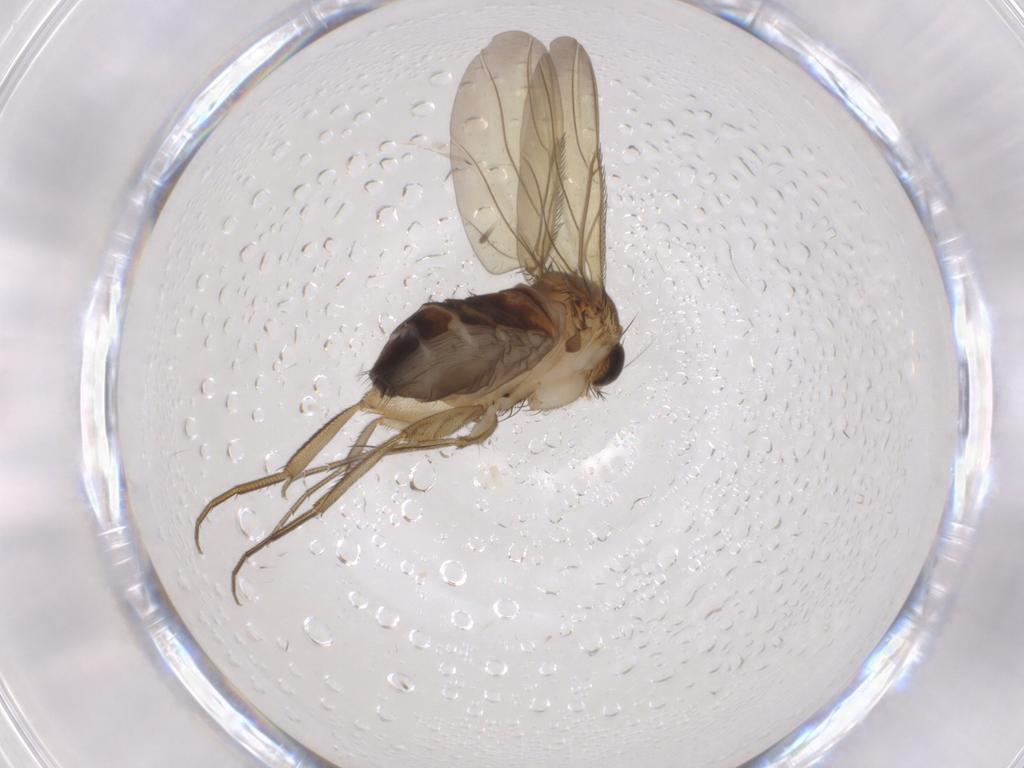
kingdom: Animalia
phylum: Arthropoda
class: Insecta
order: Diptera
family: Phoridae
